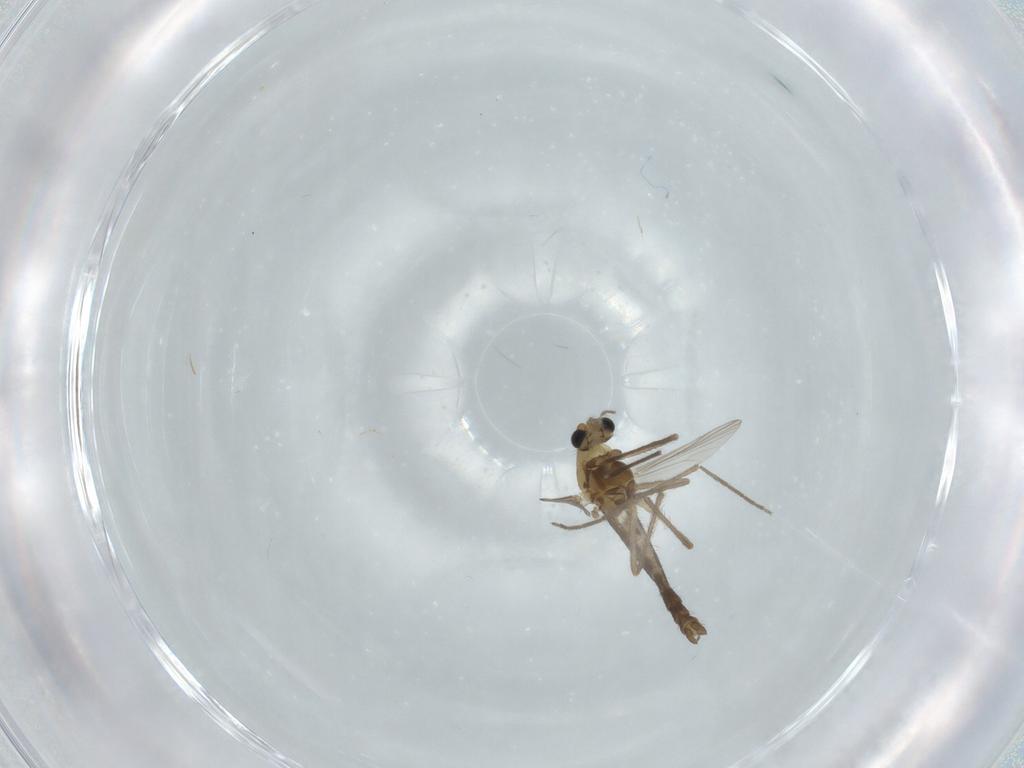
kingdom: Animalia
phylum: Arthropoda
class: Insecta
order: Diptera
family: Chironomidae
